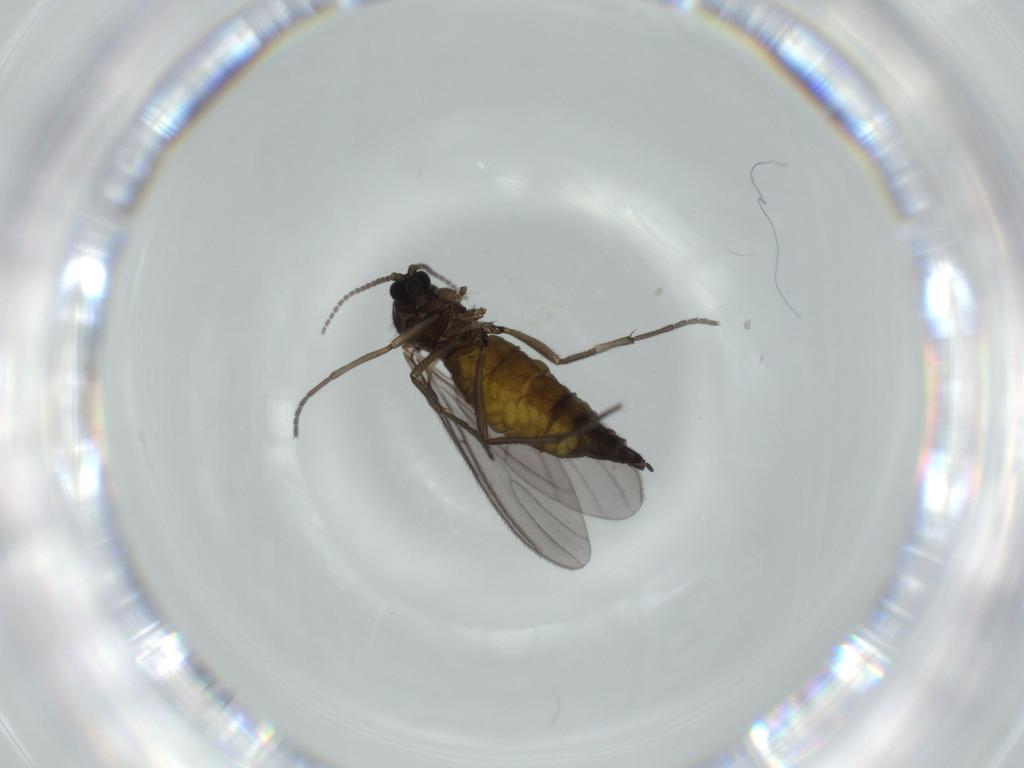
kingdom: Animalia
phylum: Arthropoda
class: Insecta
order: Diptera
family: Sciaridae
